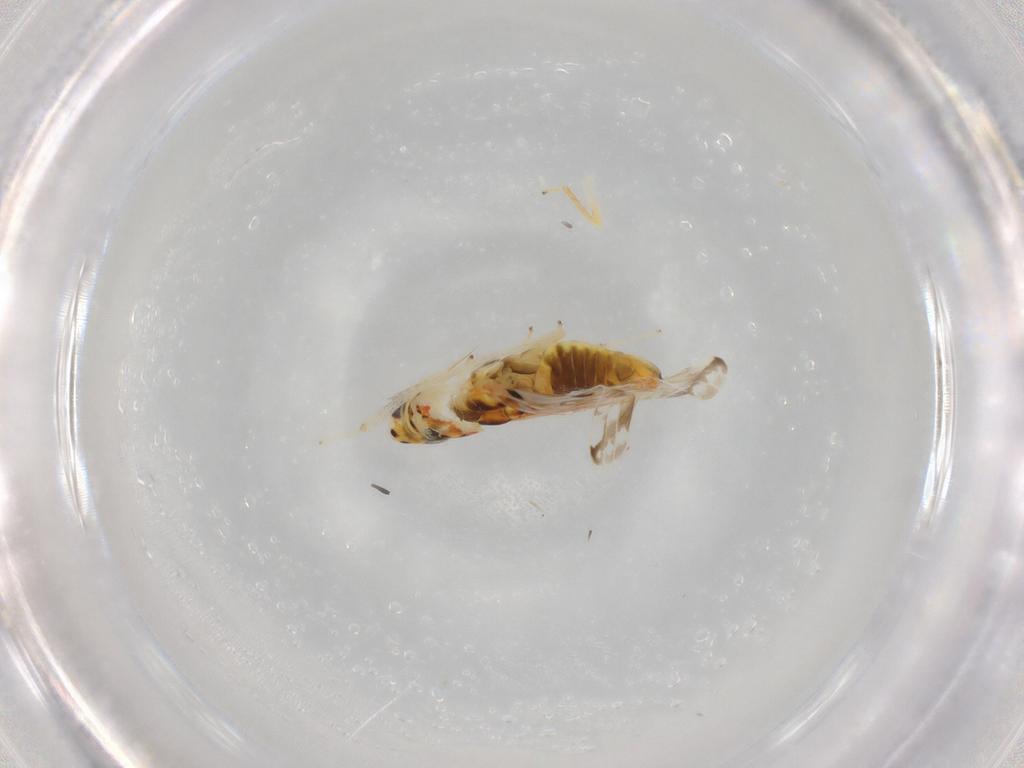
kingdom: Animalia
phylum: Arthropoda
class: Insecta
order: Hemiptera
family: Cicadellidae
